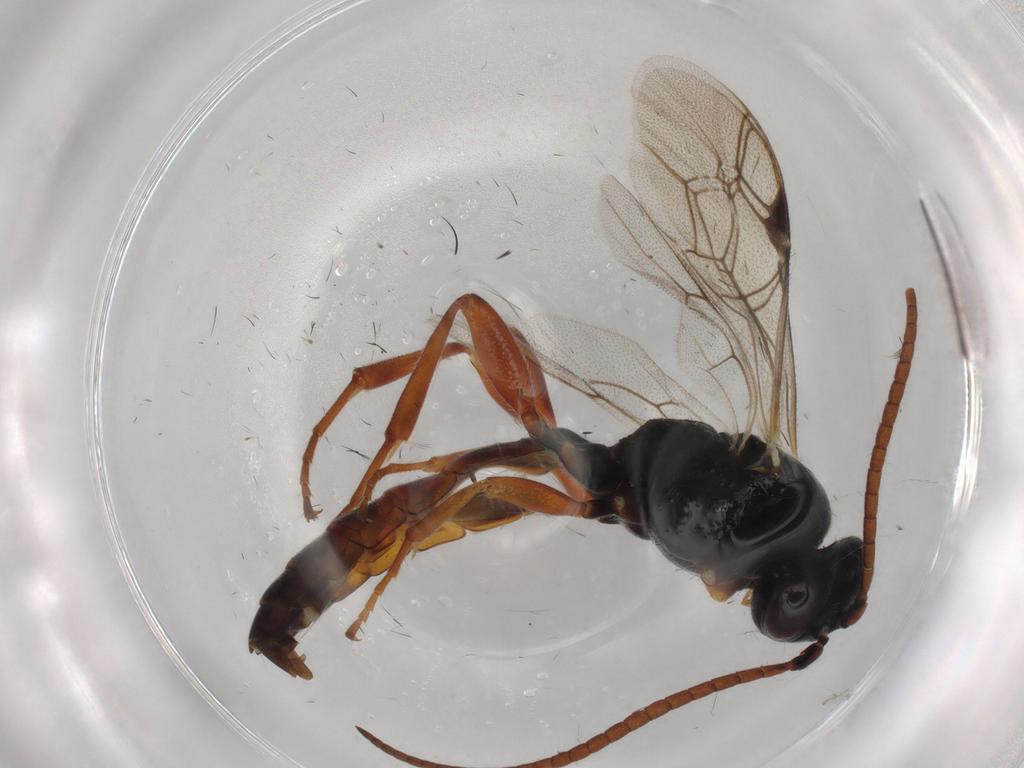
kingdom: Animalia
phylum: Arthropoda
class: Insecta
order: Hymenoptera
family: Ichneumonidae
